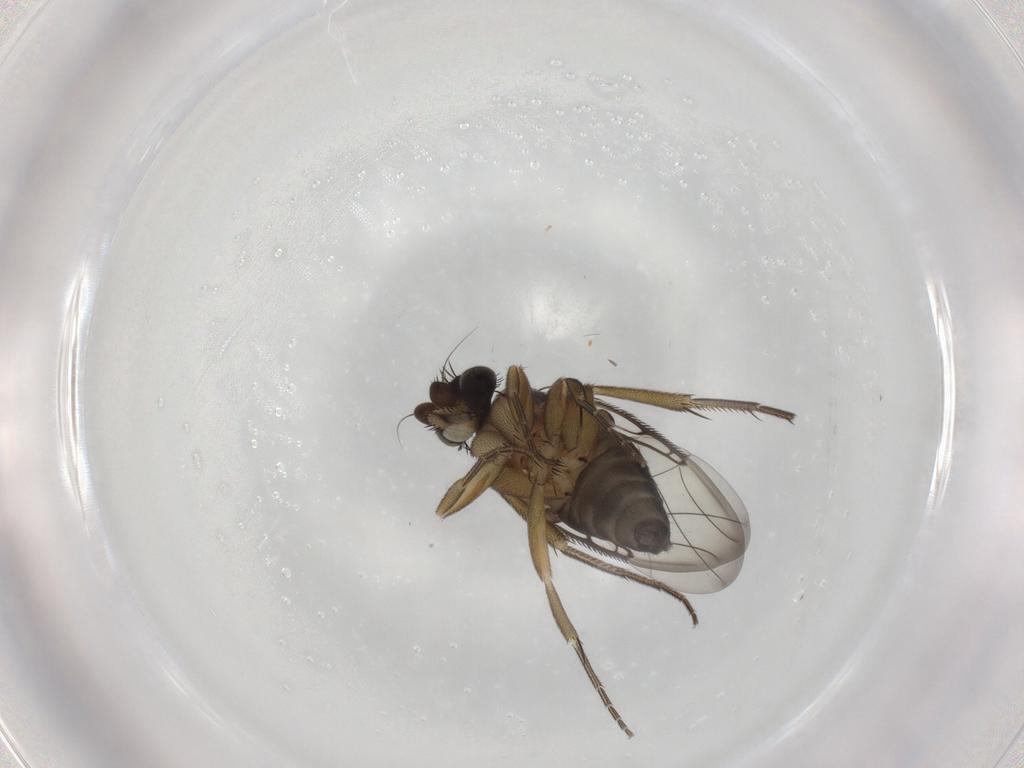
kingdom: Animalia
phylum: Arthropoda
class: Insecta
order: Diptera
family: Phoridae
